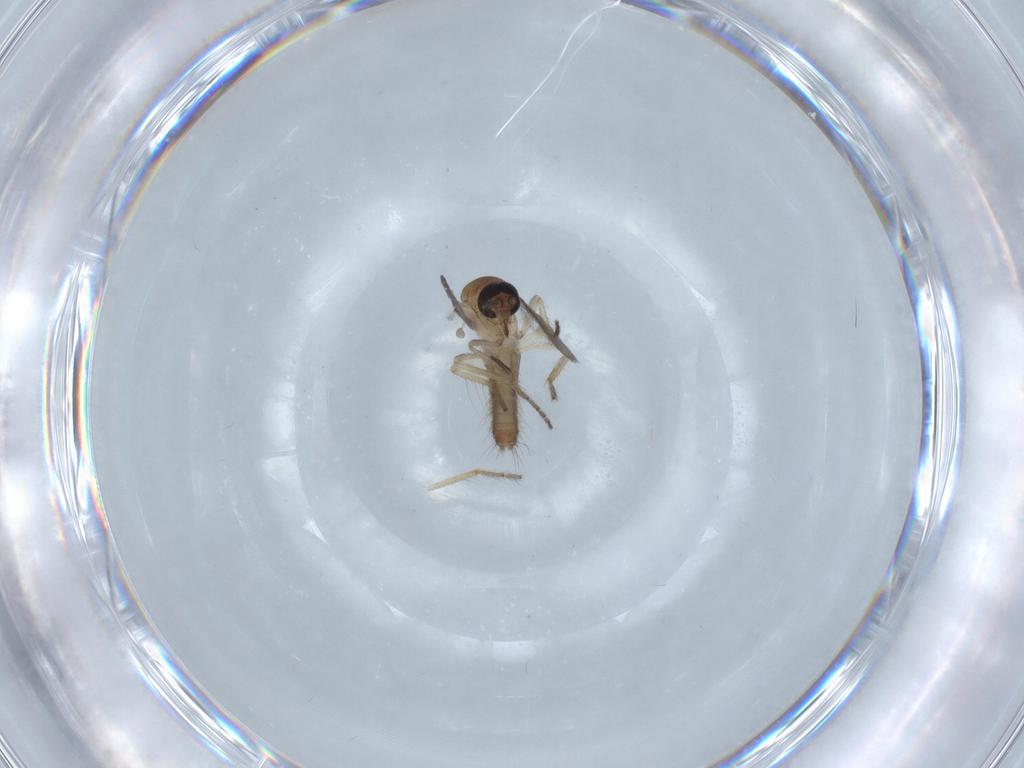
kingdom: Animalia
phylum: Arthropoda
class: Insecta
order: Diptera
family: Ceratopogonidae
